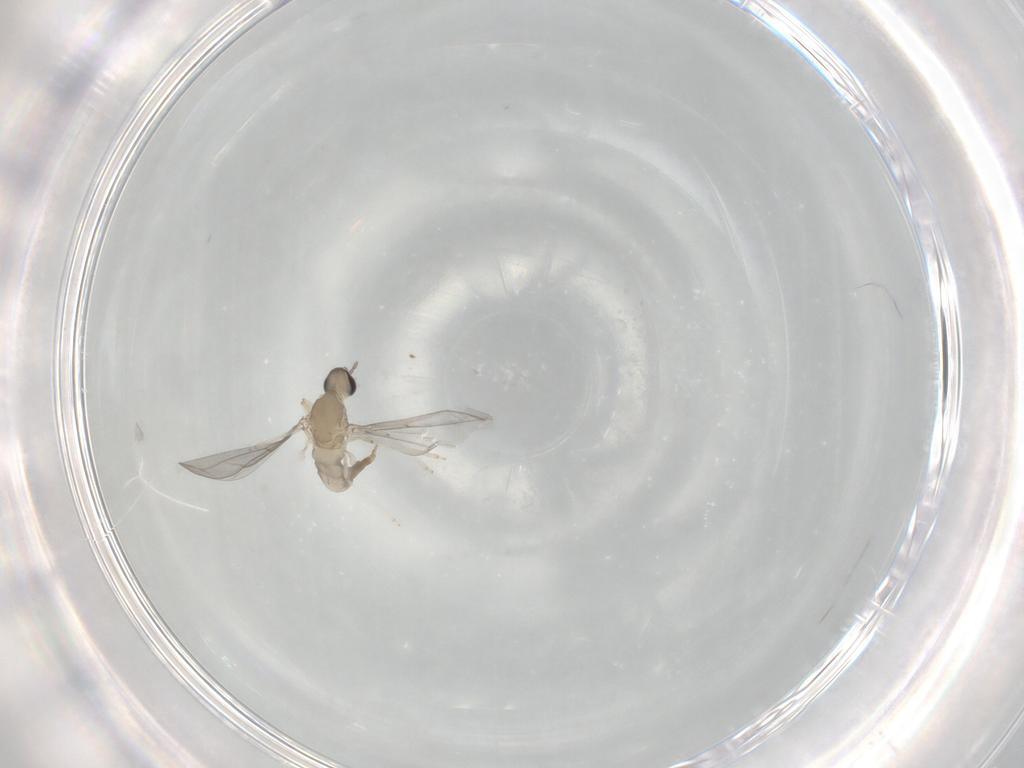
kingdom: Animalia
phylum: Arthropoda
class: Insecta
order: Diptera
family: Cecidomyiidae
